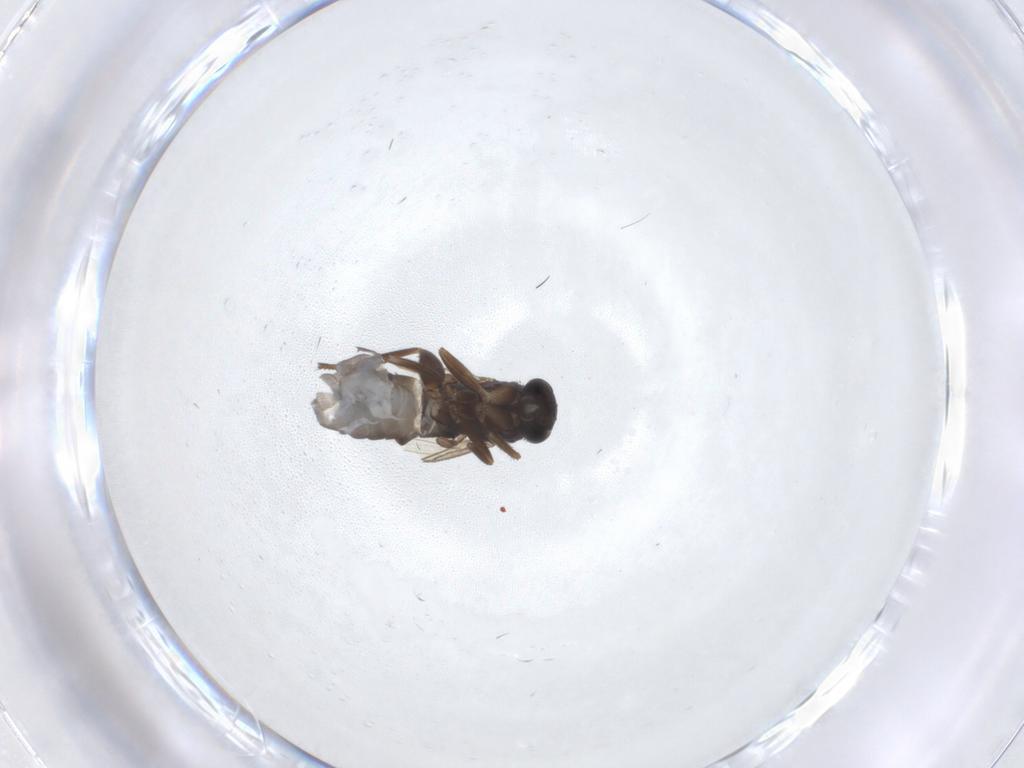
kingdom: Animalia
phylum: Arthropoda
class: Insecta
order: Diptera
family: Phoridae
